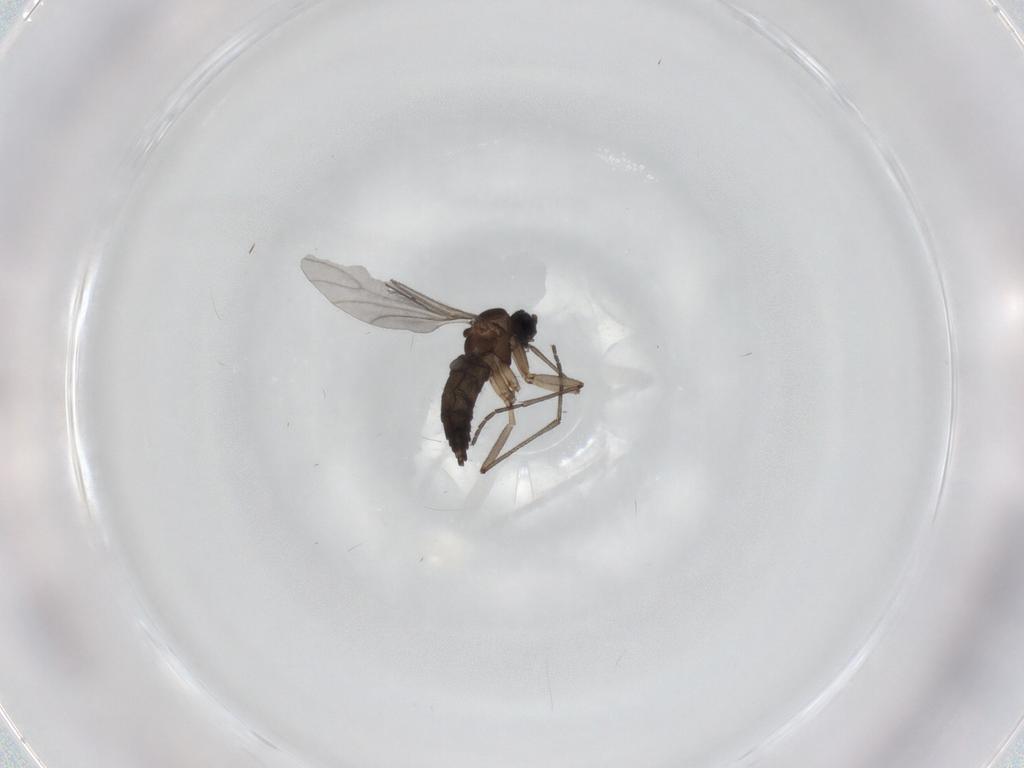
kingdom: Animalia
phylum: Arthropoda
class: Insecta
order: Diptera
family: Sciaridae
